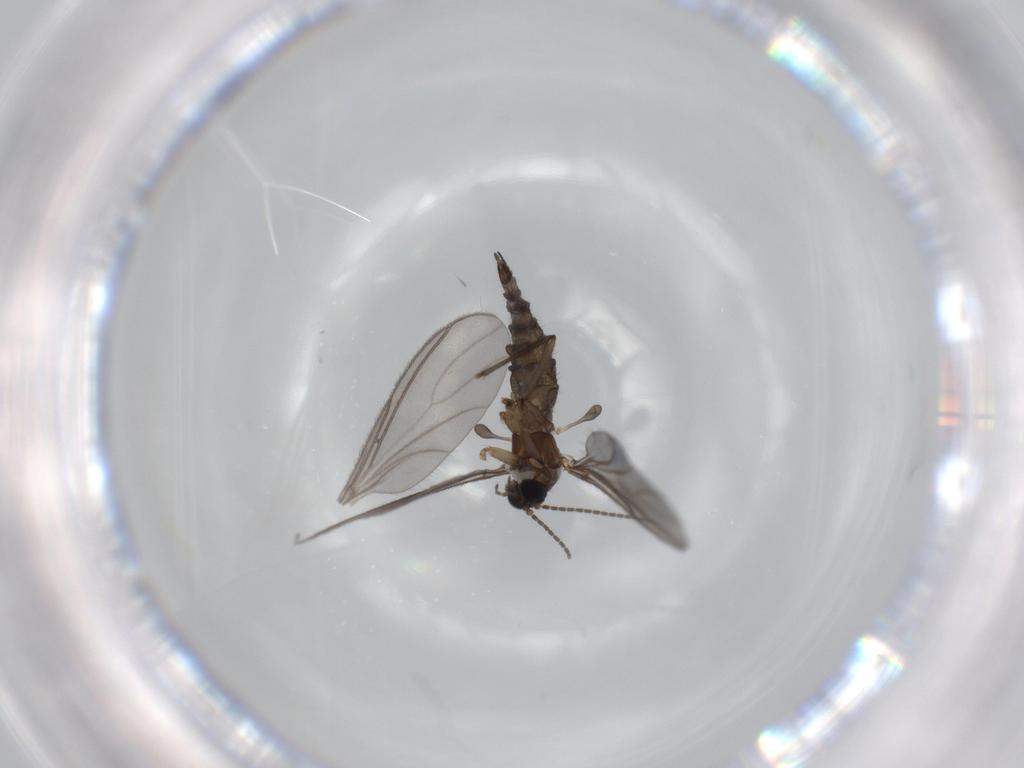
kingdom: Animalia
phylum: Arthropoda
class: Insecta
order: Diptera
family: Sciaridae
